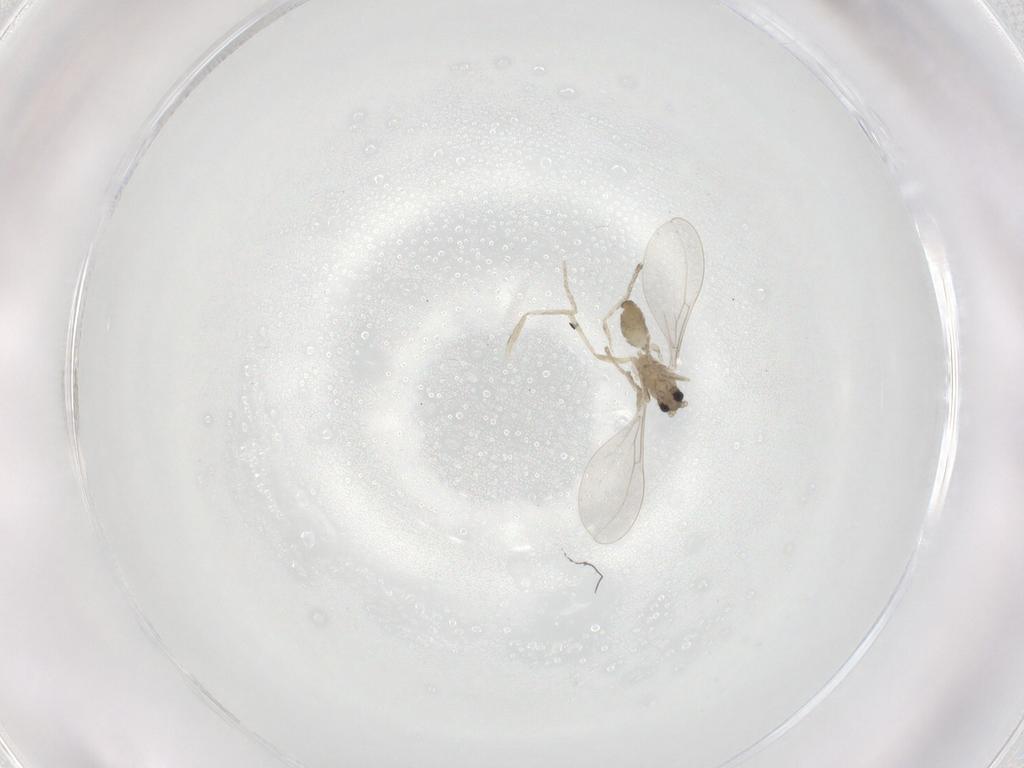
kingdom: Animalia
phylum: Arthropoda
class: Insecta
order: Diptera
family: Cecidomyiidae
